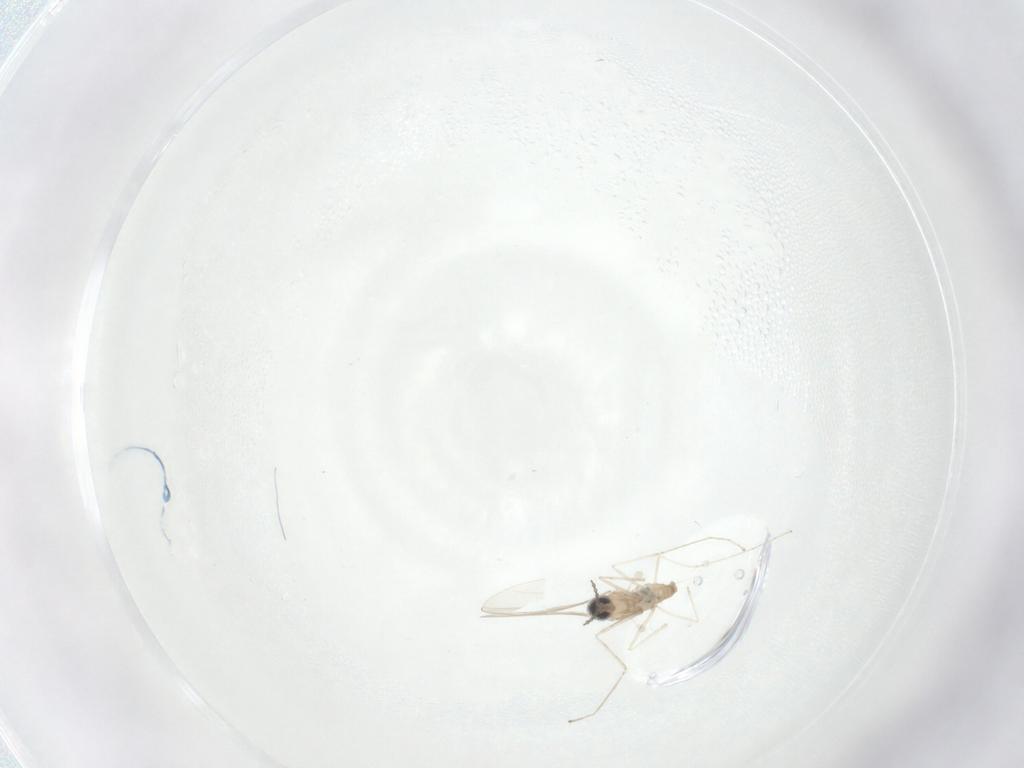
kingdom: Animalia
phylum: Arthropoda
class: Insecta
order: Diptera
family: Cecidomyiidae
